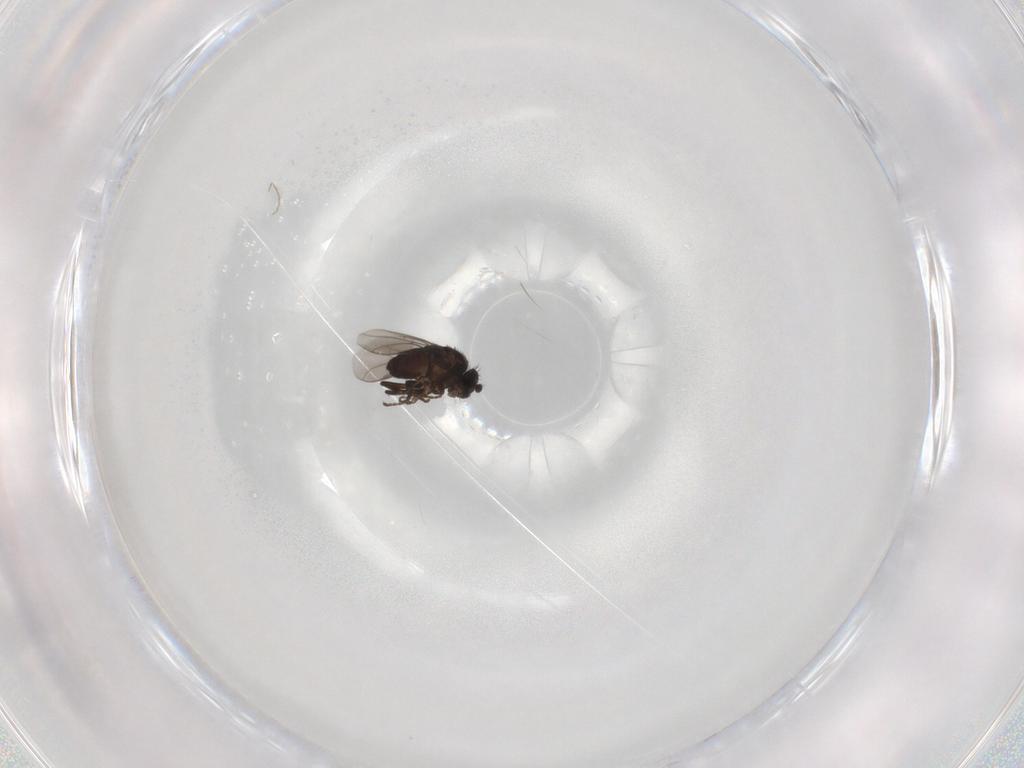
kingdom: Animalia
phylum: Arthropoda
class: Insecta
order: Diptera
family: Sphaeroceridae
